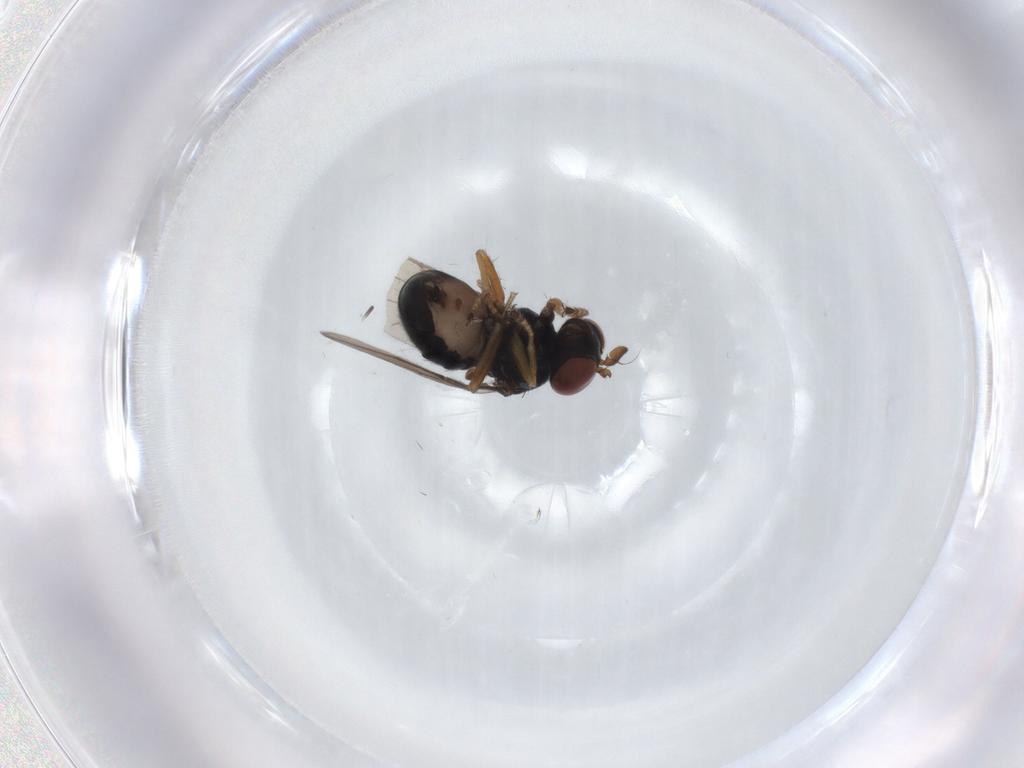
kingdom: Animalia
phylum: Arthropoda
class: Insecta
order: Diptera
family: Ephydridae
